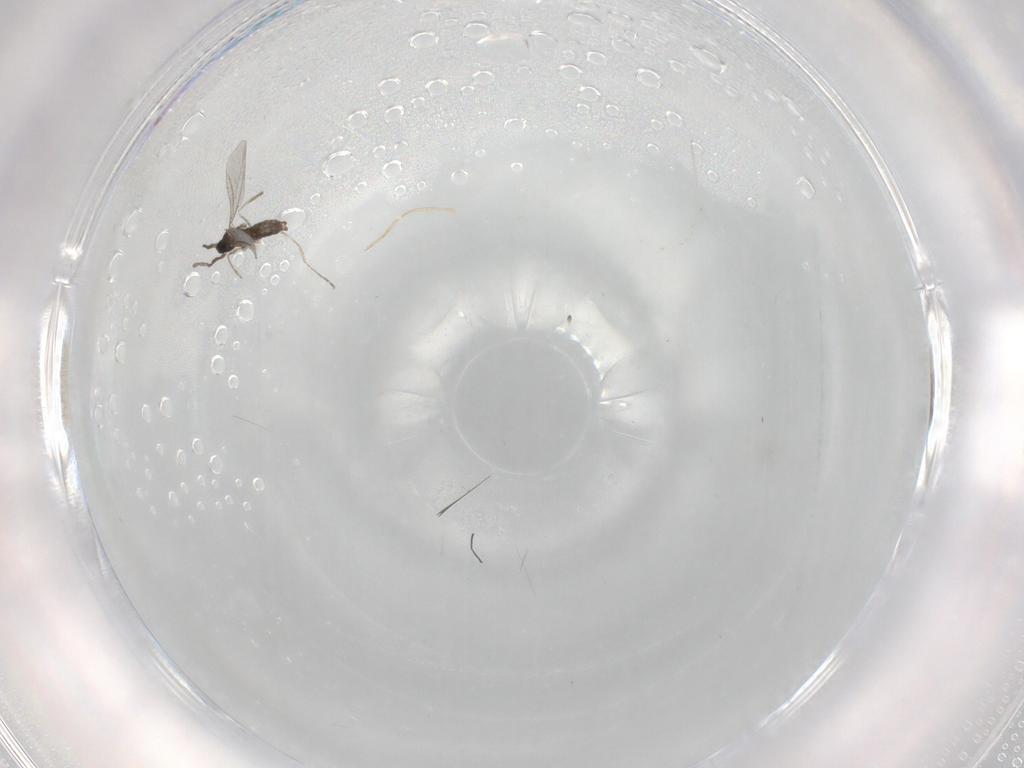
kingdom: Animalia
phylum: Arthropoda
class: Insecta
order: Diptera
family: Cecidomyiidae
